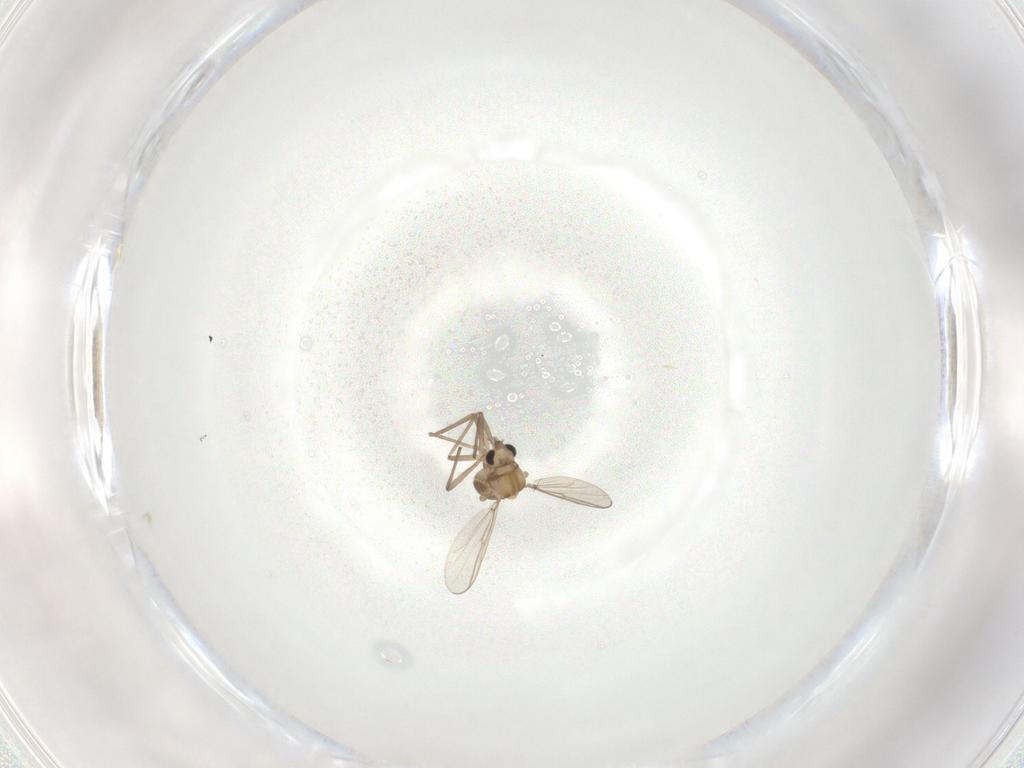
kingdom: Animalia
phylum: Arthropoda
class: Insecta
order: Diptera
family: Chironomidae
